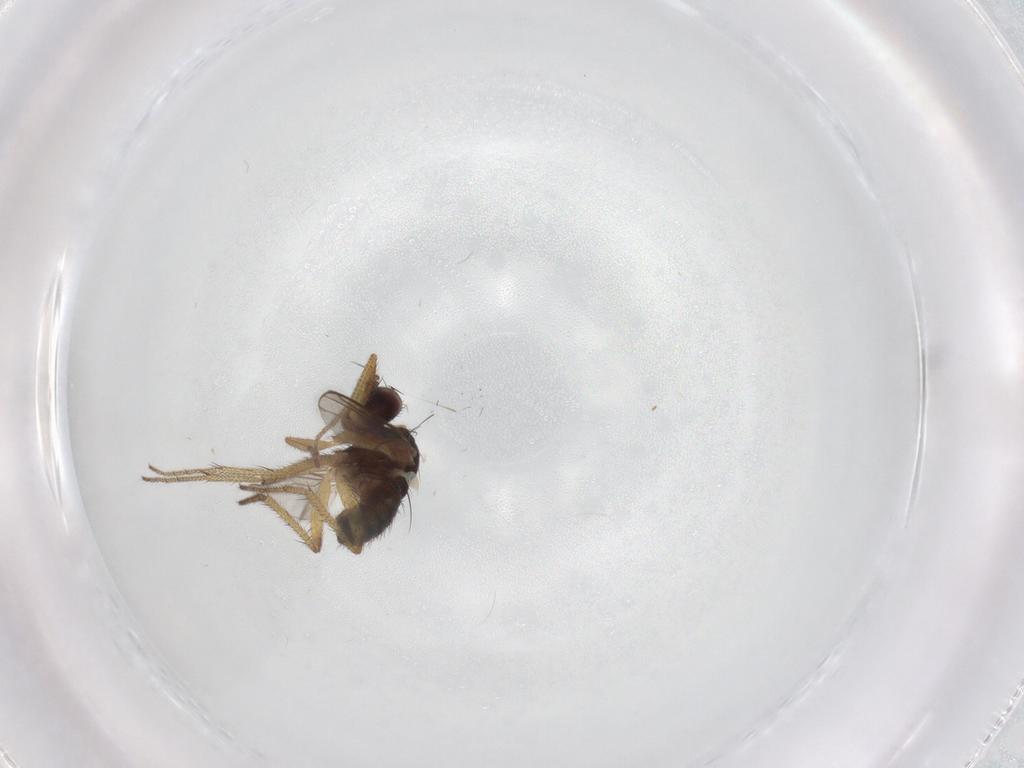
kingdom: Animalia
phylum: Arthropoda
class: Insecta
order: Diptera
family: Dolichopodidae
